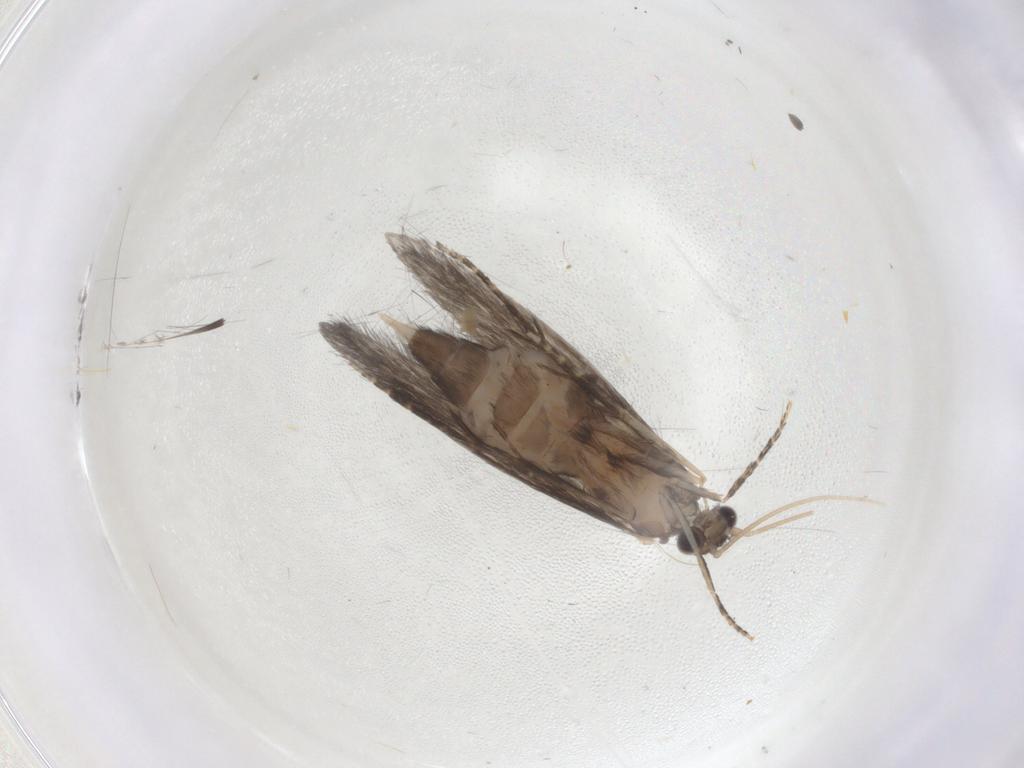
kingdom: Animalia
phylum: Arthropoda
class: Insecta
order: Trichoptera
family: Hydroptilidae
